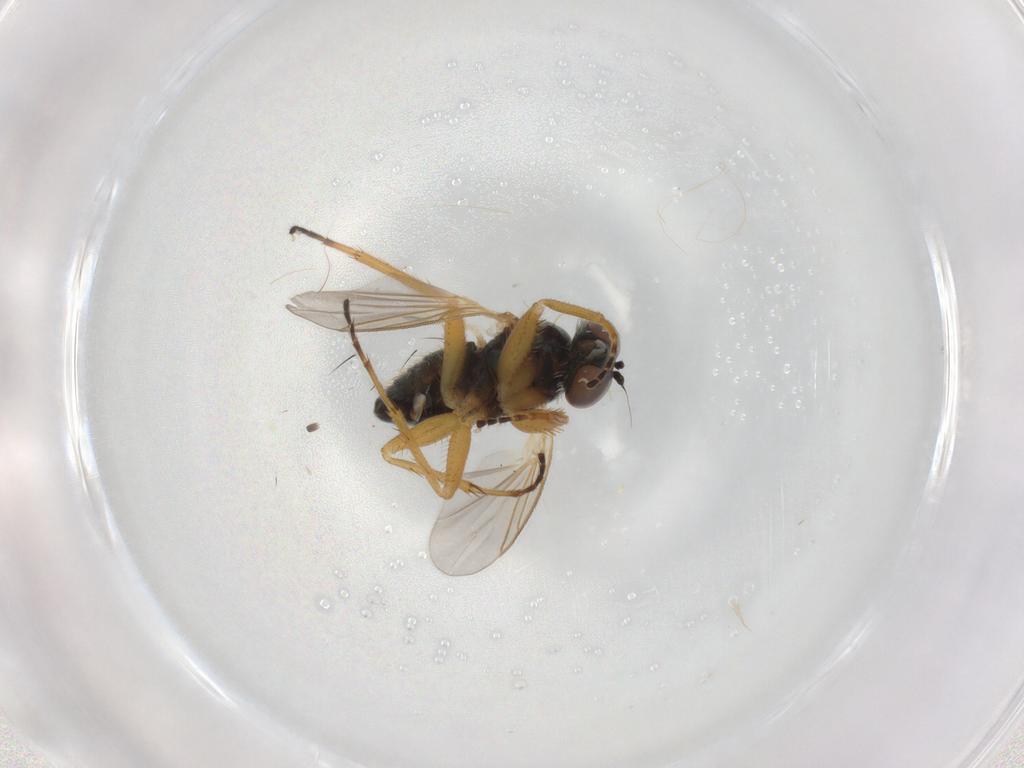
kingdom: Animalia
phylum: Arthropoda
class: Insecta
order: Diptera
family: Dolichopodidae
